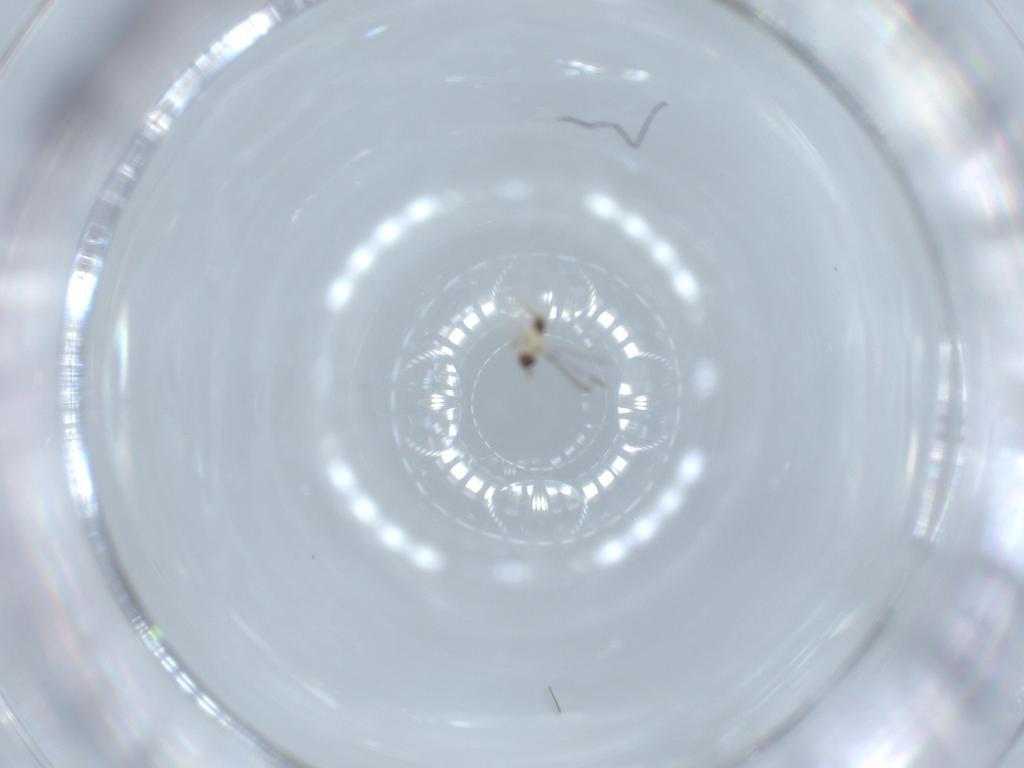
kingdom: Animalia
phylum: Arthropoda
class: Insecta
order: Hymenoptera
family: Mymaridae
